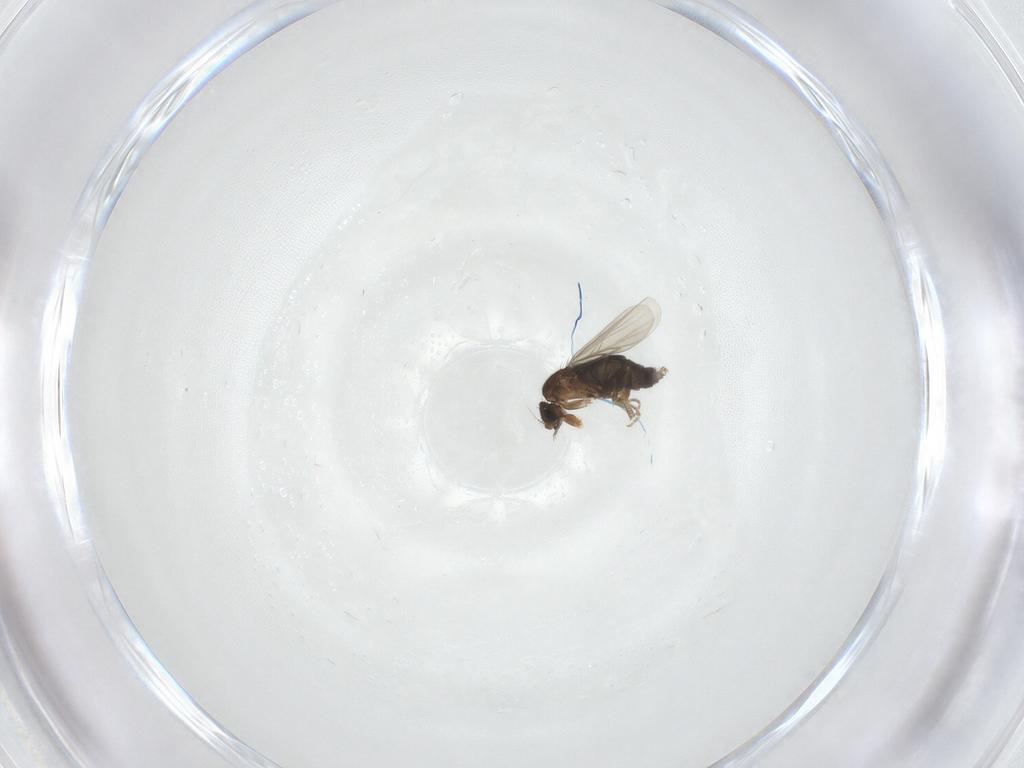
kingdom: Animalia
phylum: Arthropoda
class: Insecta
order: Diptera
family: Phoridae
